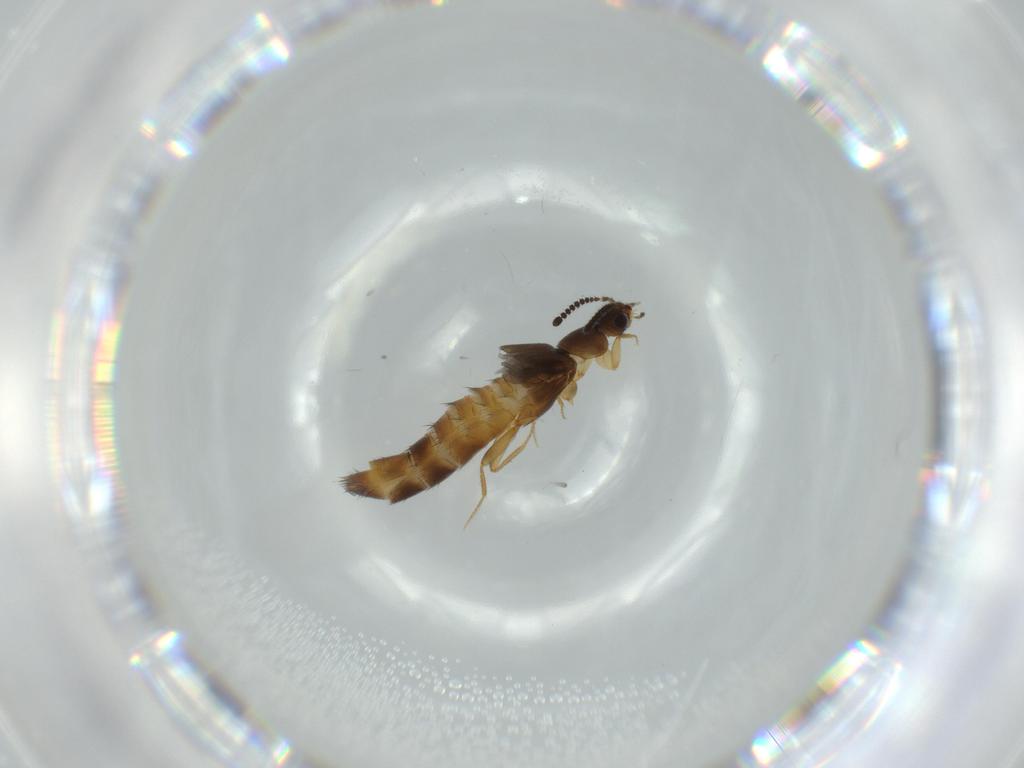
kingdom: Animalia
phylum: Arthropoda
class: Insecta
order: Coleoptera
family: Staphylinidae
